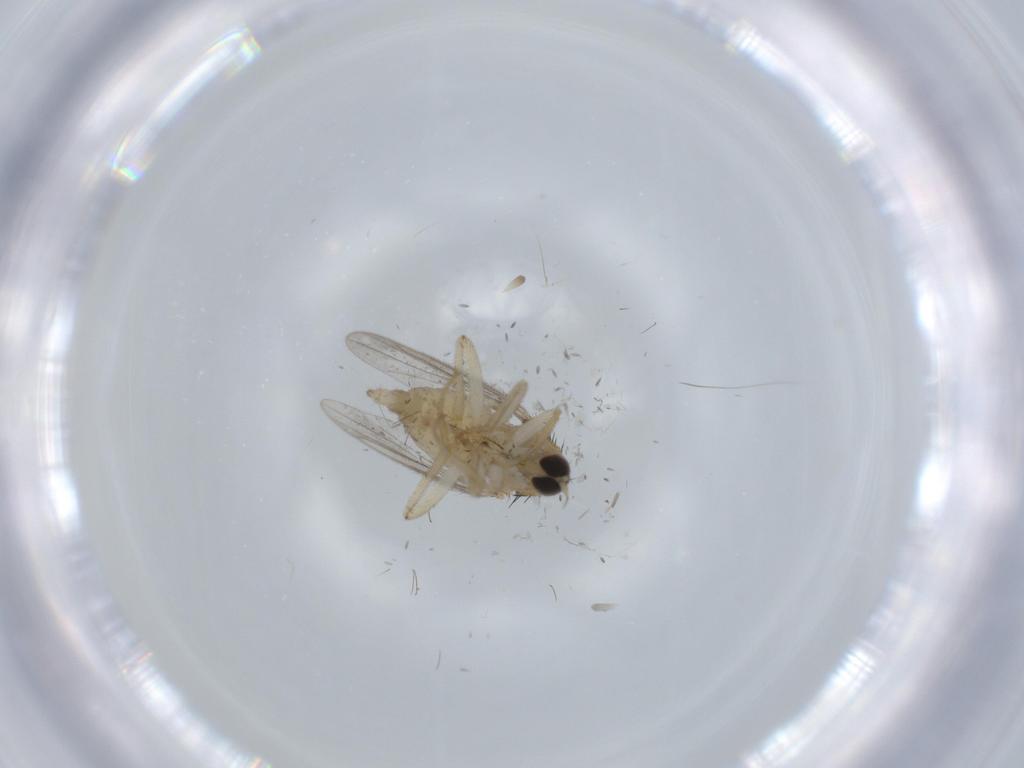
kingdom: Animalia
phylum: Arthropoda
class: Insecta
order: Diptera
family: Hybotidae
